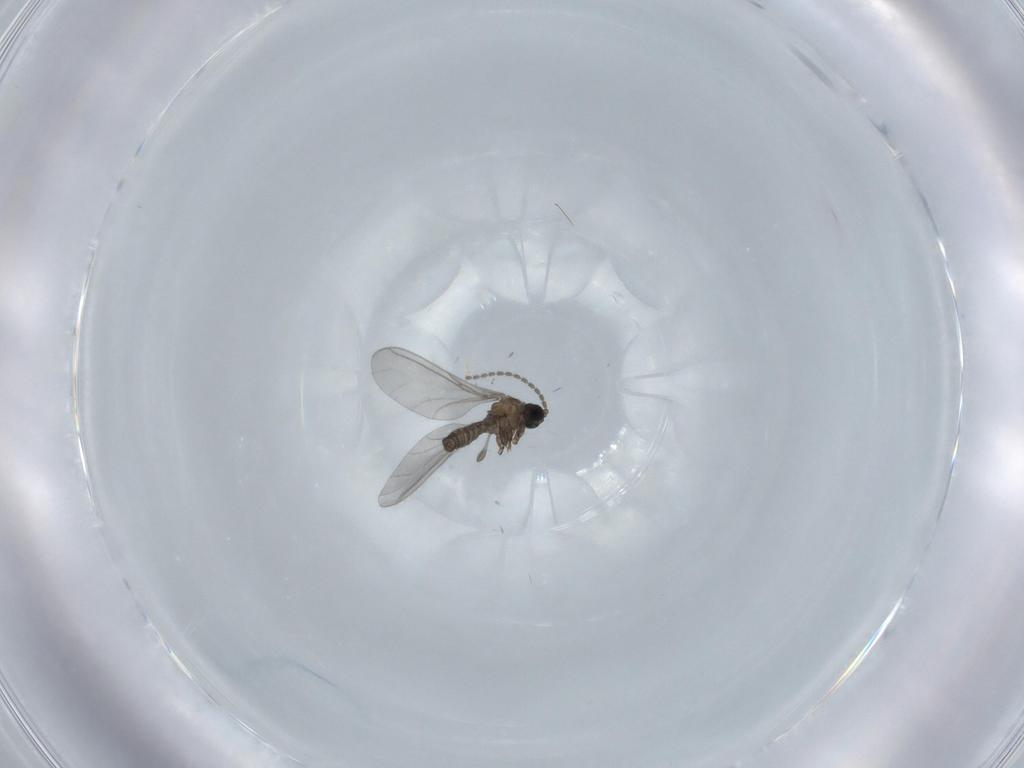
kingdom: Animalia
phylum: Arthropoda
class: Insecta
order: Diptera
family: Sciaridae
